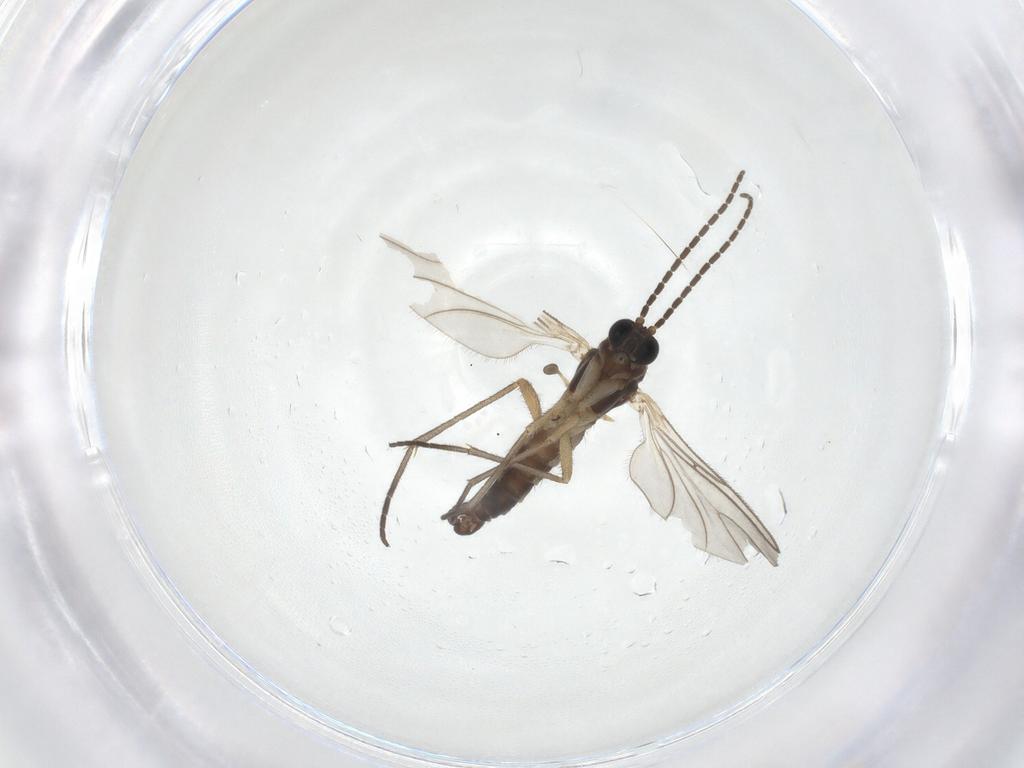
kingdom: Animalia
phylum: Arthropoda
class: Insecta
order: Diptera
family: Sciaridae
